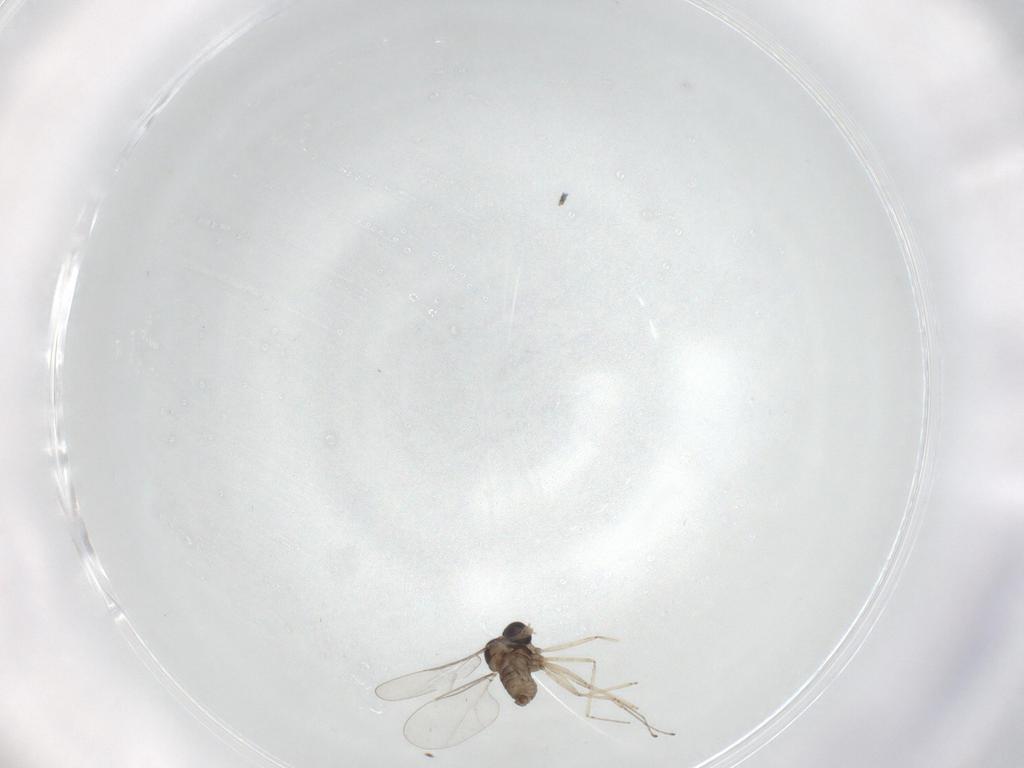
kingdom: Animalia
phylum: Arthropoda
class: Insecta
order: Diptera
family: Cecidomyiidae
